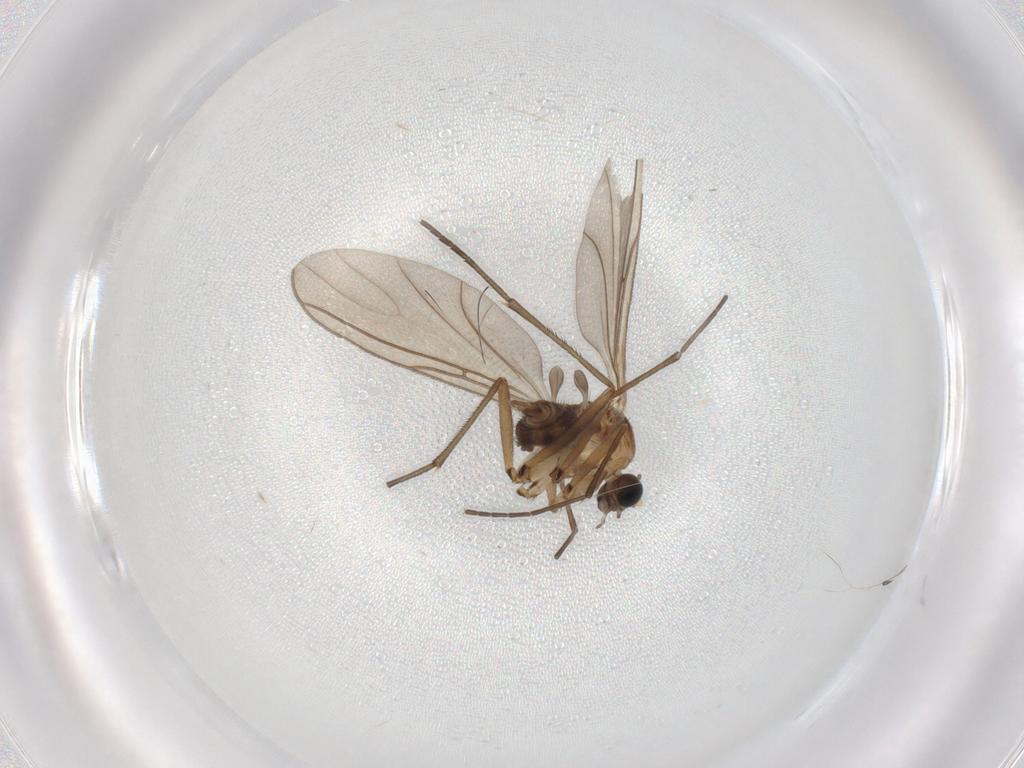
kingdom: Animalia
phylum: Arthropoda
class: Insecta
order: Diptera
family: Sciaridae
